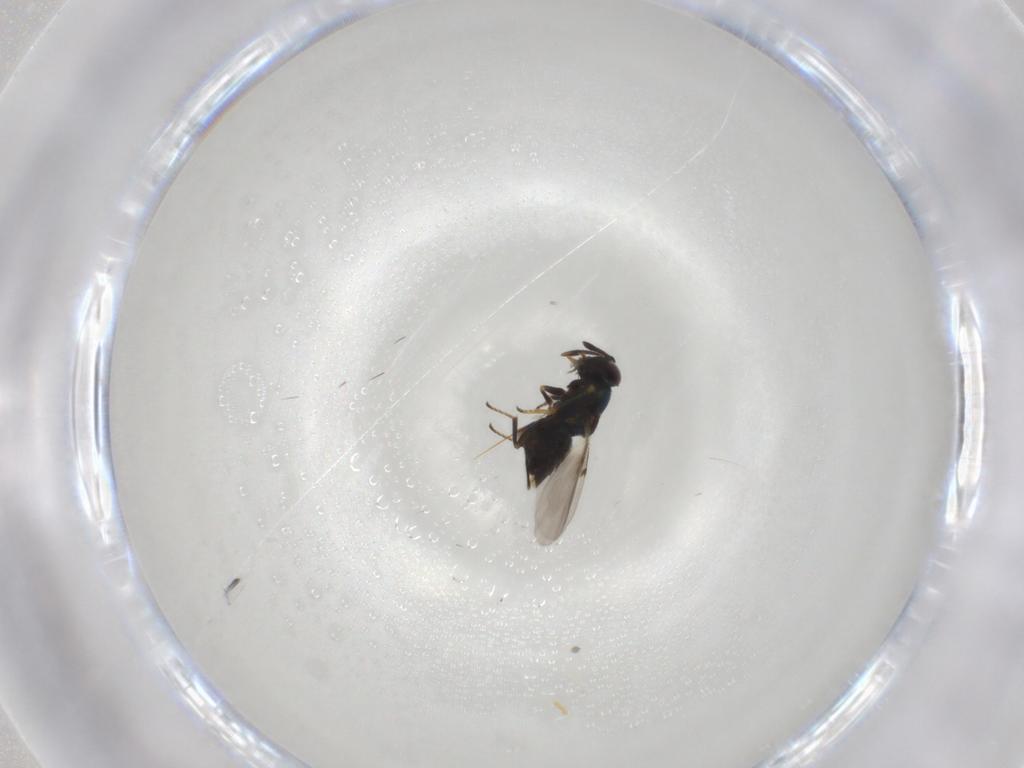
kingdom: Animalia
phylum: Arthropoda
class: Insecta
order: Hymenoptera
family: Encyrtidae
